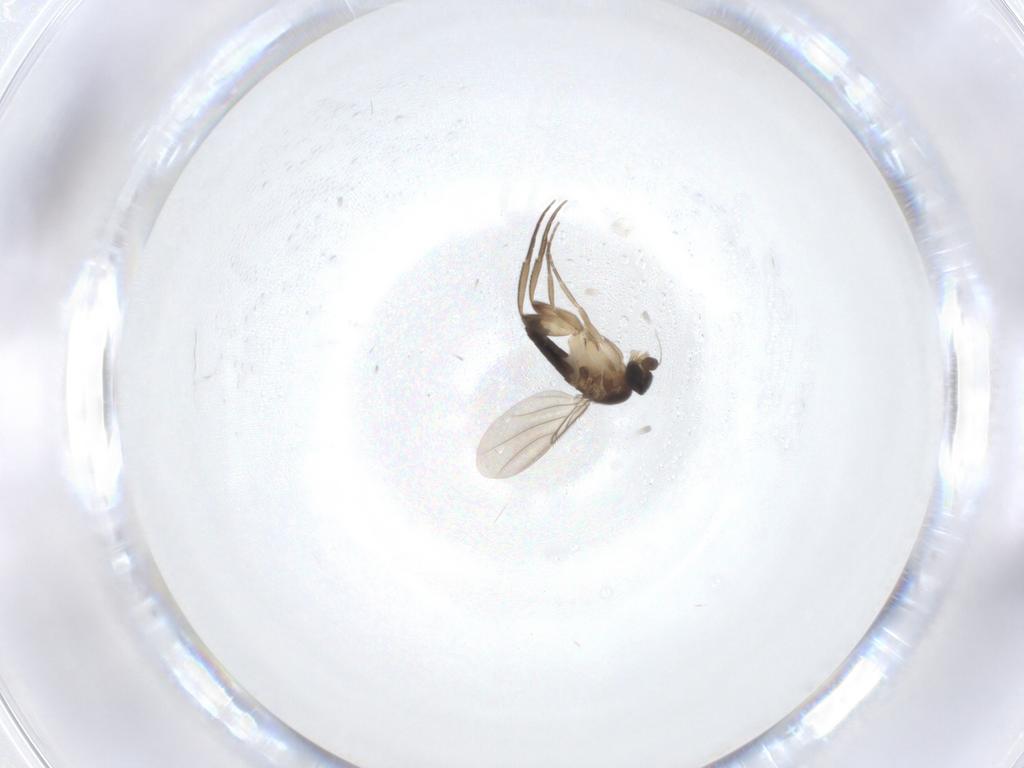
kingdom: Animalia
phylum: Arthropoda
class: Insecta
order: Diptera
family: Phoridae
